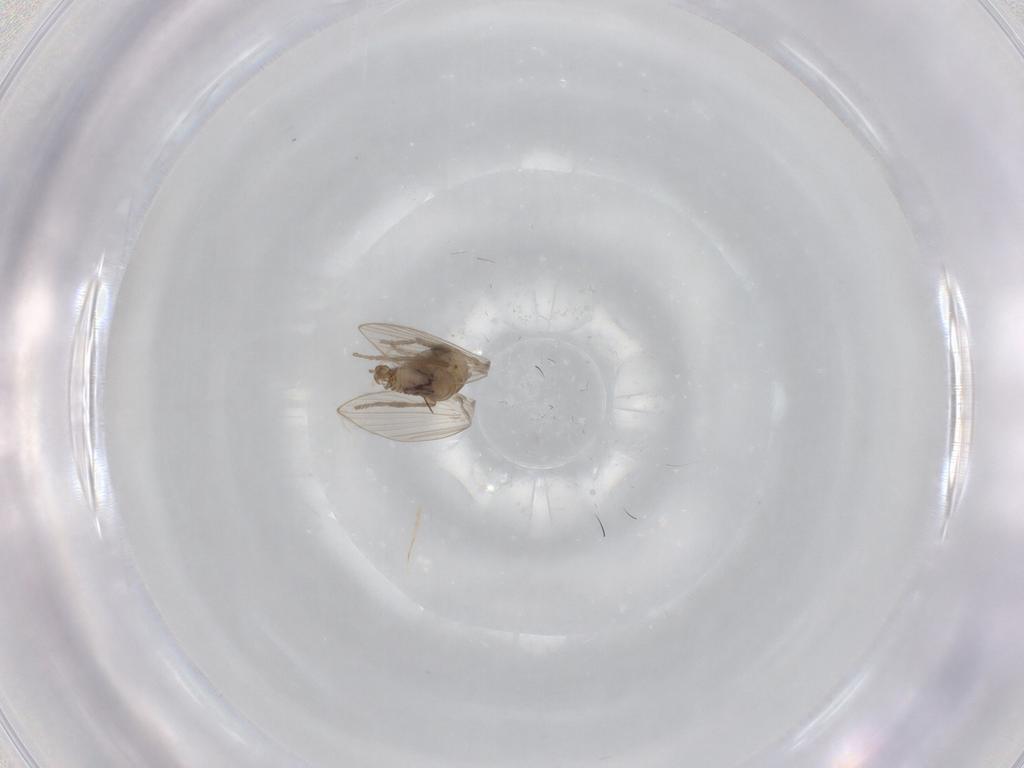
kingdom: Animalia
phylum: Arthropoda
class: Insecta
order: Diptera
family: Psychodidae
